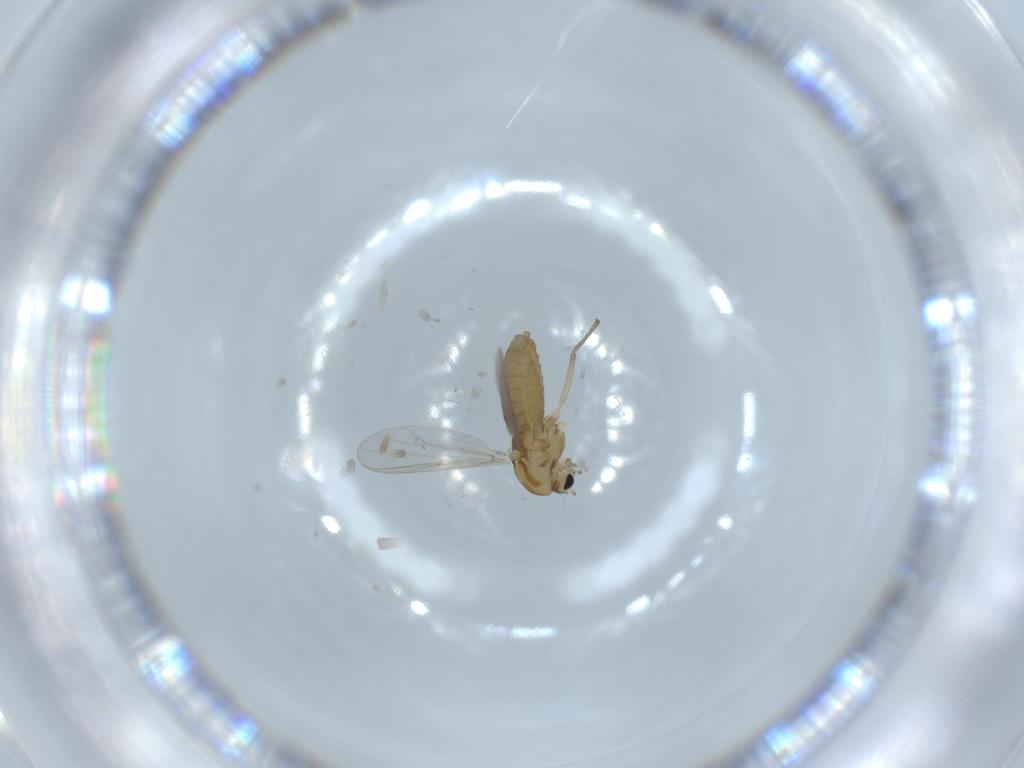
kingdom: Animalia
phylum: Arthropoda
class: Insecta
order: Diptera
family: Chironomidae
